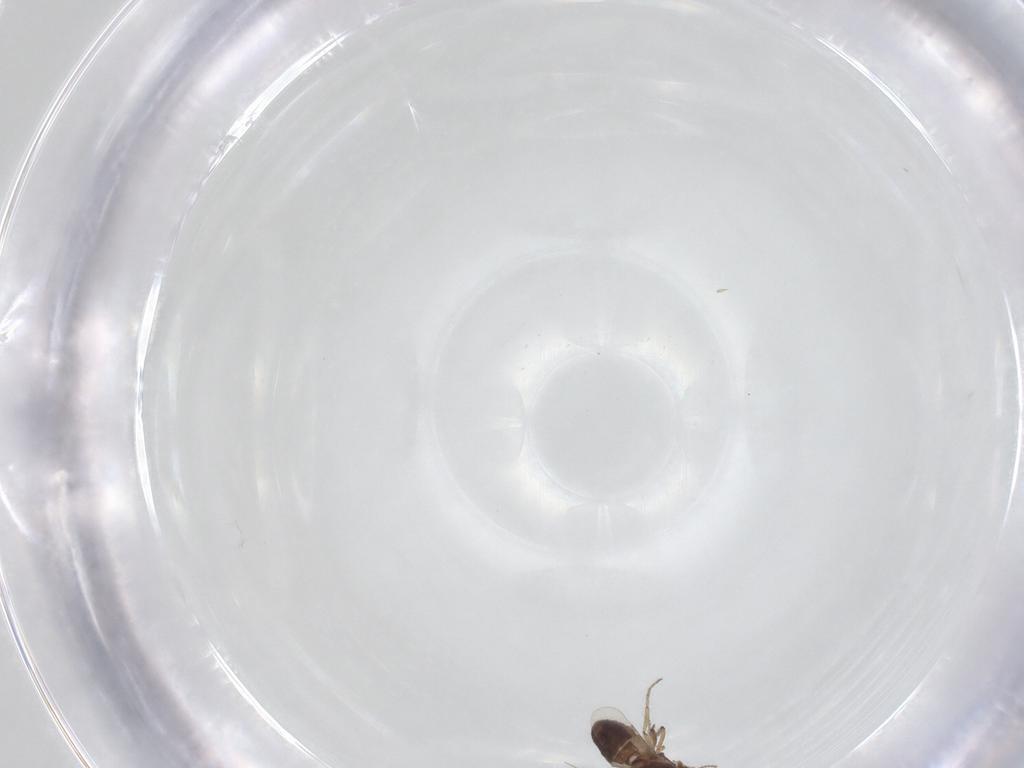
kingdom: Animalia
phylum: Arthropoda
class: Insecta
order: Diptera
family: Ceratopogonidae
